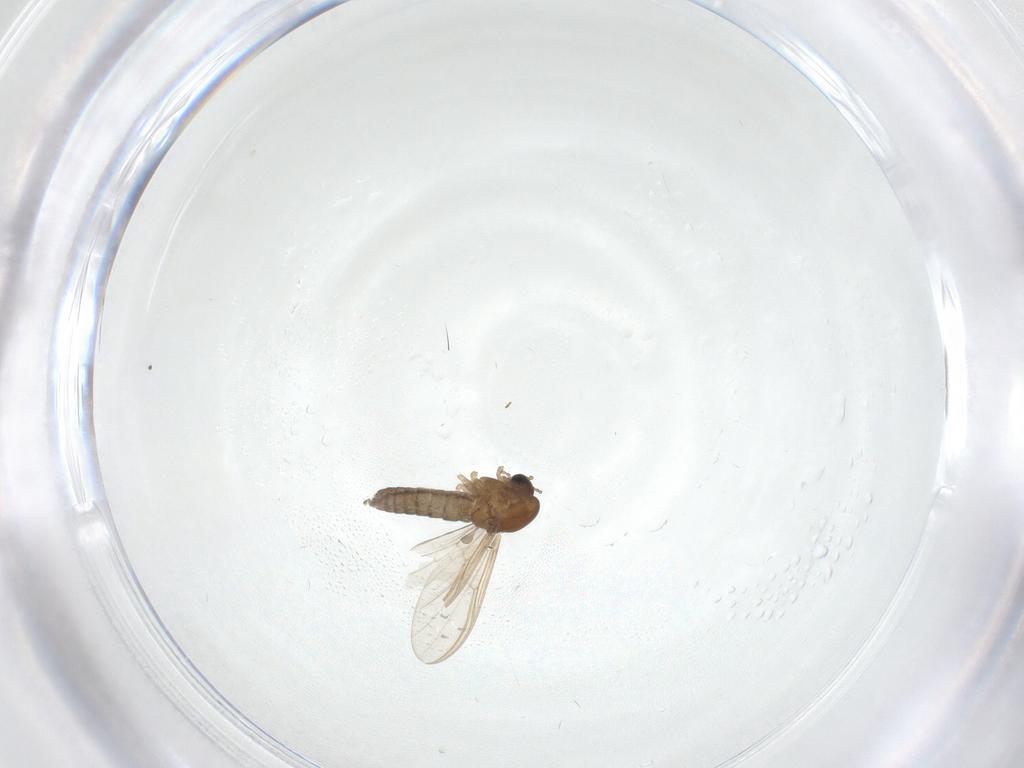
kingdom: Animalia
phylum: Arthropoda
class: Insecta
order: Diptera
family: Chironomidae
